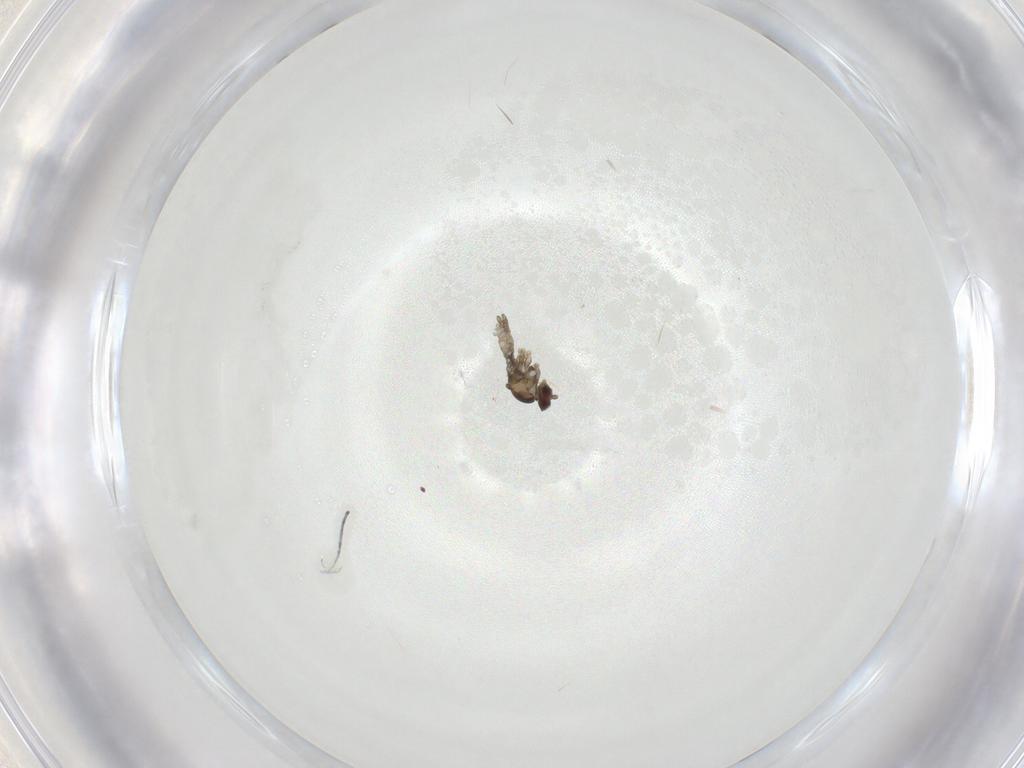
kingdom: Animalia
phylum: Arthropoda
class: Insecta
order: Diptera
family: Cecidomyiidae
